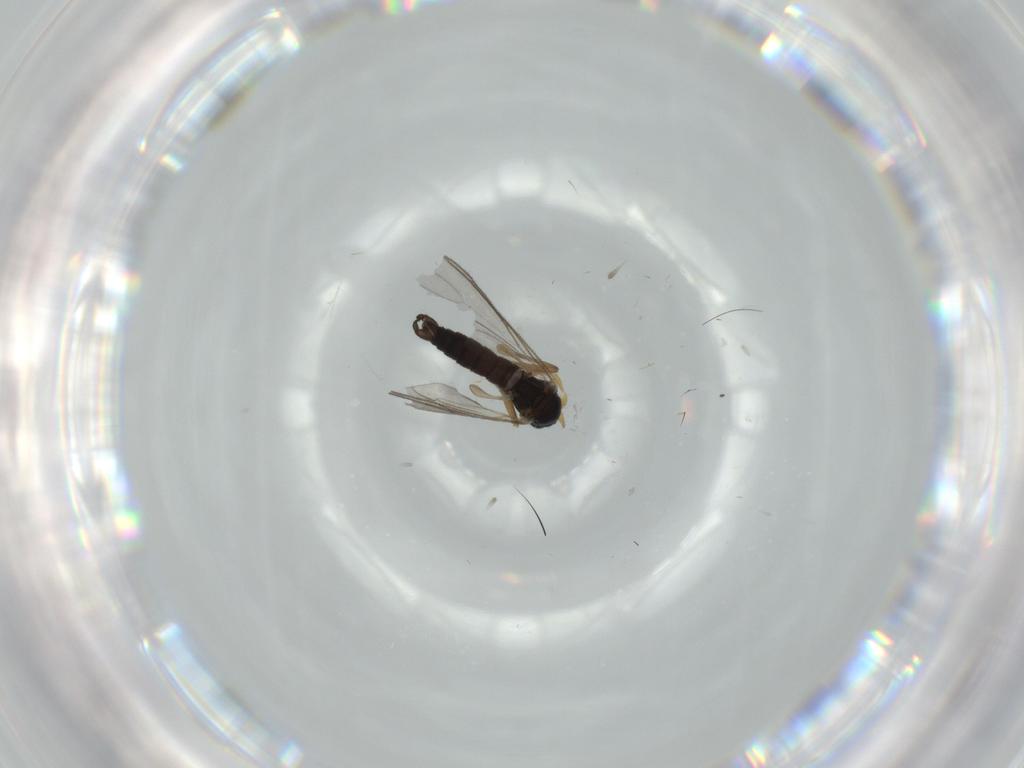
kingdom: Animalia
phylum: Arthropoda
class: Insecta
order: Diptera
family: Sciaridae
